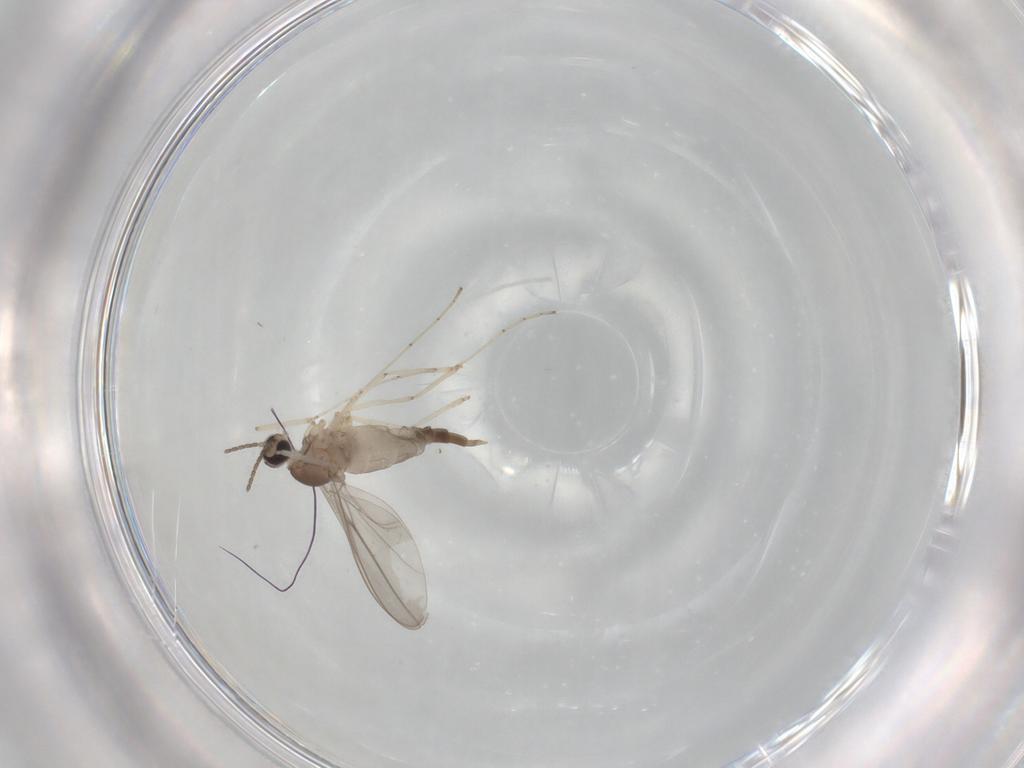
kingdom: Animalia
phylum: Arthropoda
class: Insecta
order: Diptera
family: Cecidomyiidae
